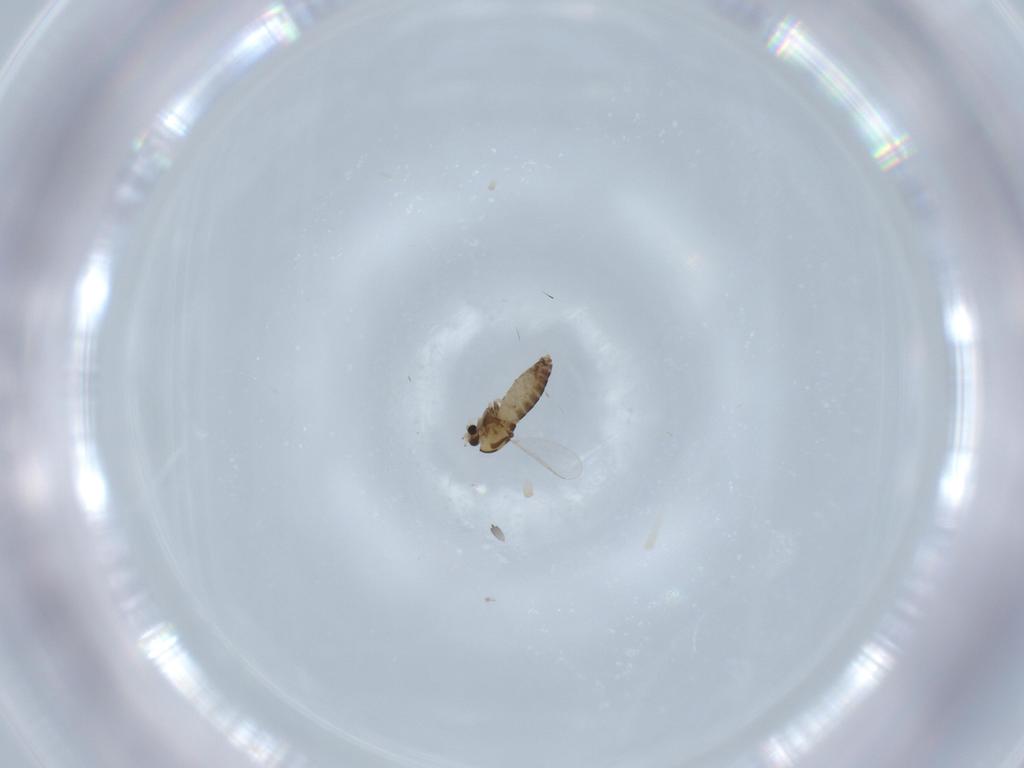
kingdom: Animalia
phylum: Arthropoda
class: Insecta
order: Diptera
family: Chironomidae
